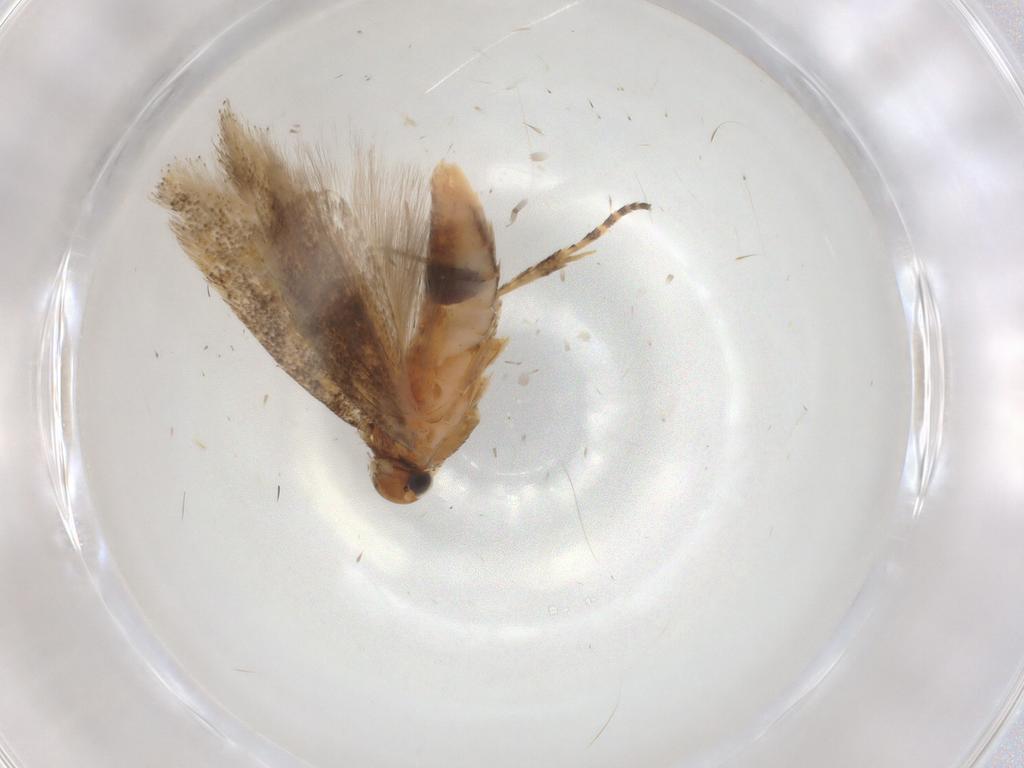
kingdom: Animalia
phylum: Arthropoda
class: Insecta
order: Lepidoptera
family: Gelechiidae
